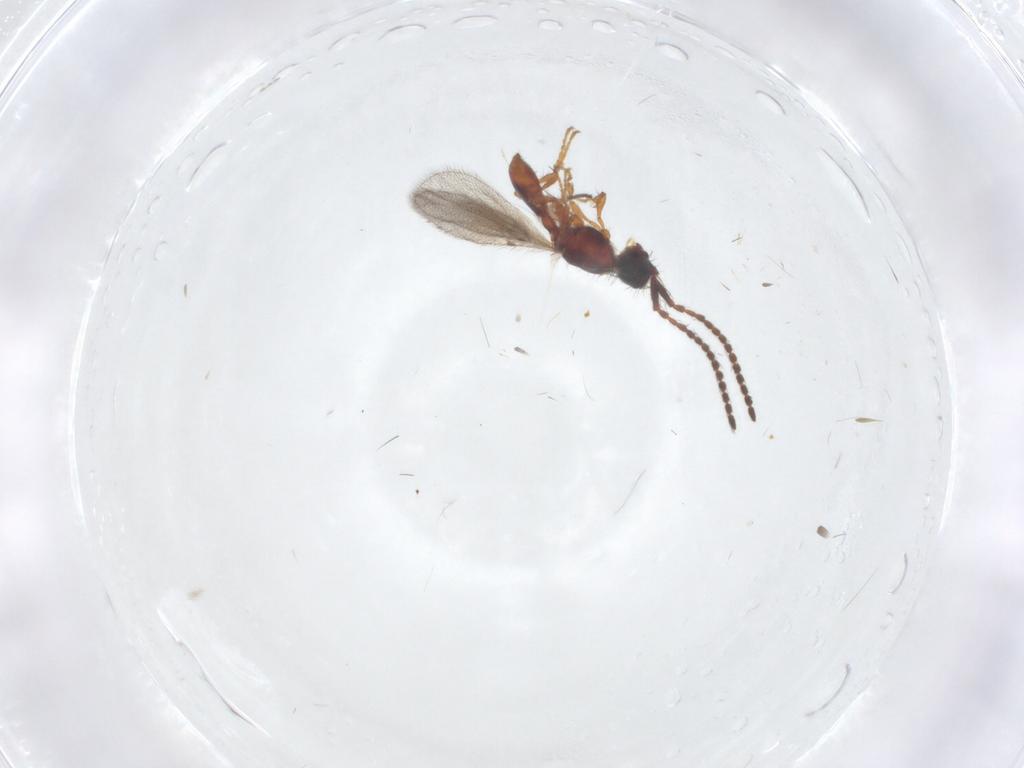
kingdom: Animalia
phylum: Arthropoda
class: Insecta
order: Hymenoptera
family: Diapriidae
